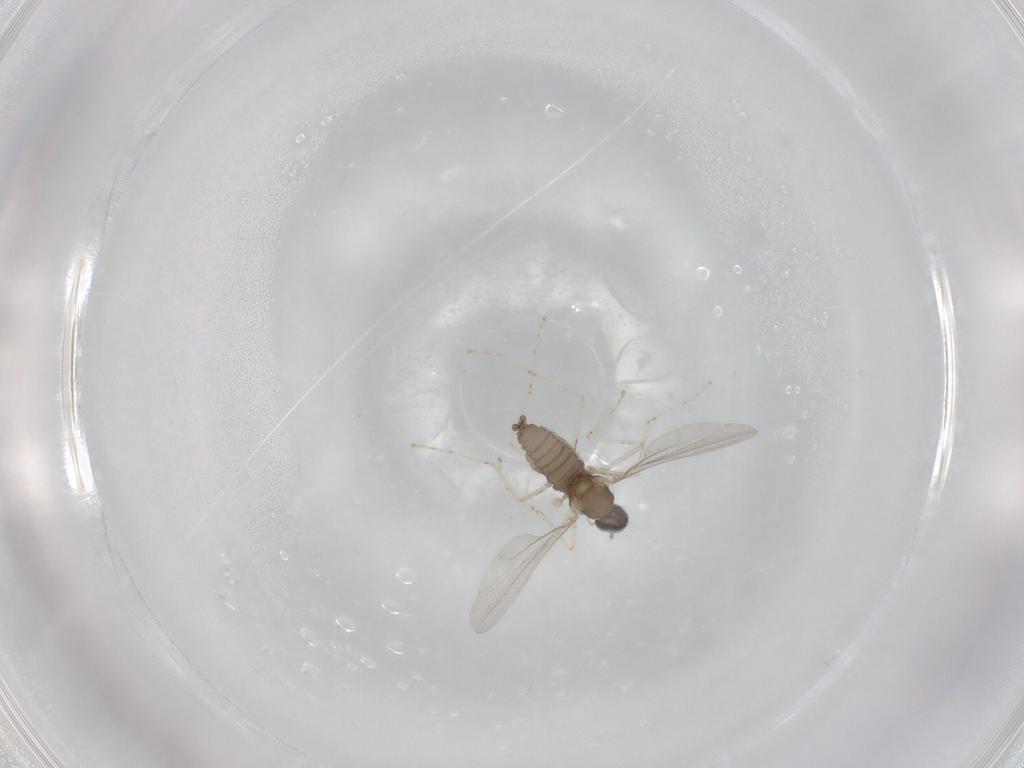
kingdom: Animalia
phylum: Arthropoda
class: Insecta
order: Diptera
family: Cecidomyiidae
